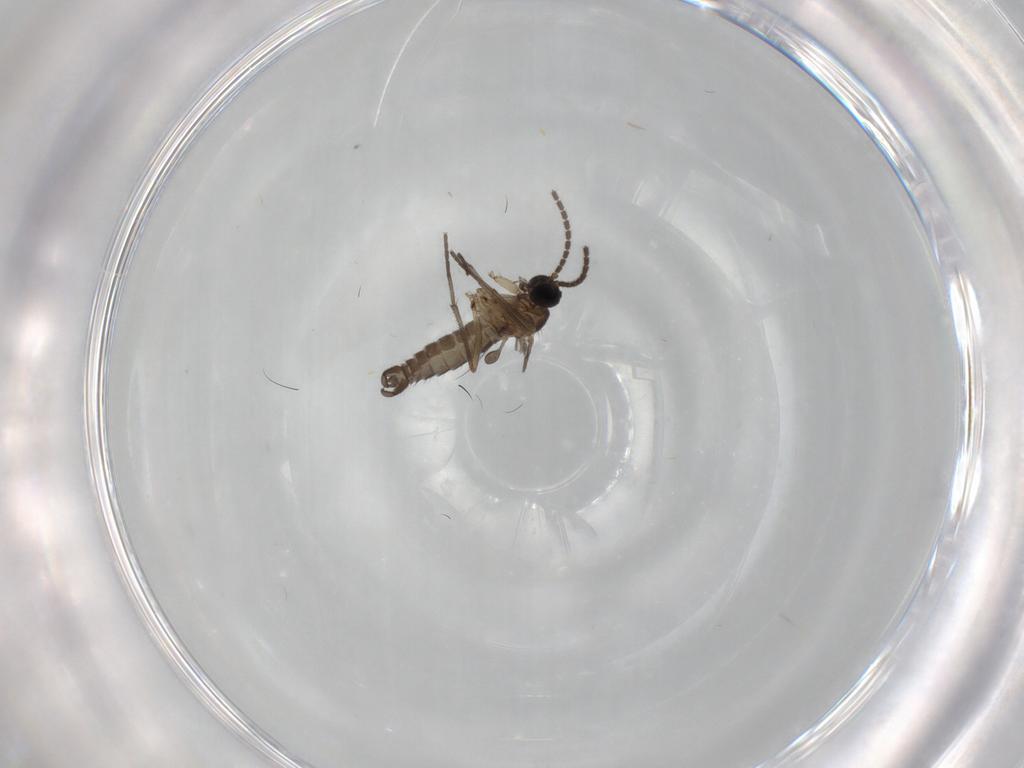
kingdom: Animalia
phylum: Arthropoda
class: Insecta
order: Diptera
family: Sciaridae
